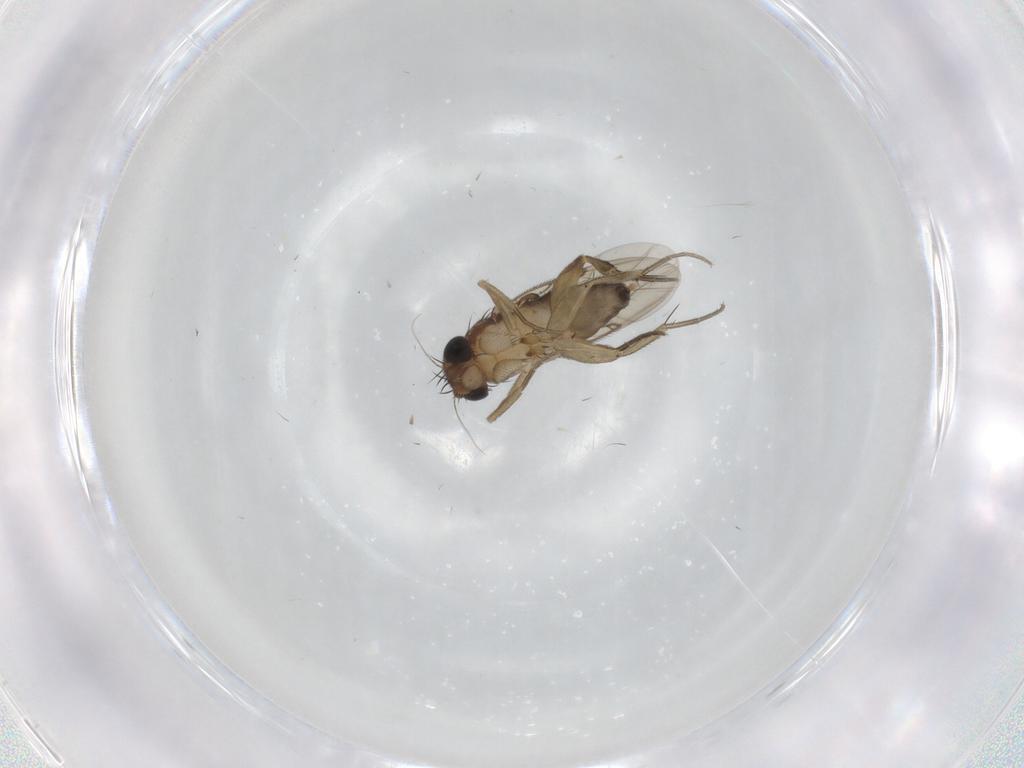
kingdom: Animalia
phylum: Arthropoda
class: Insecta
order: Diptera
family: Phoridae
